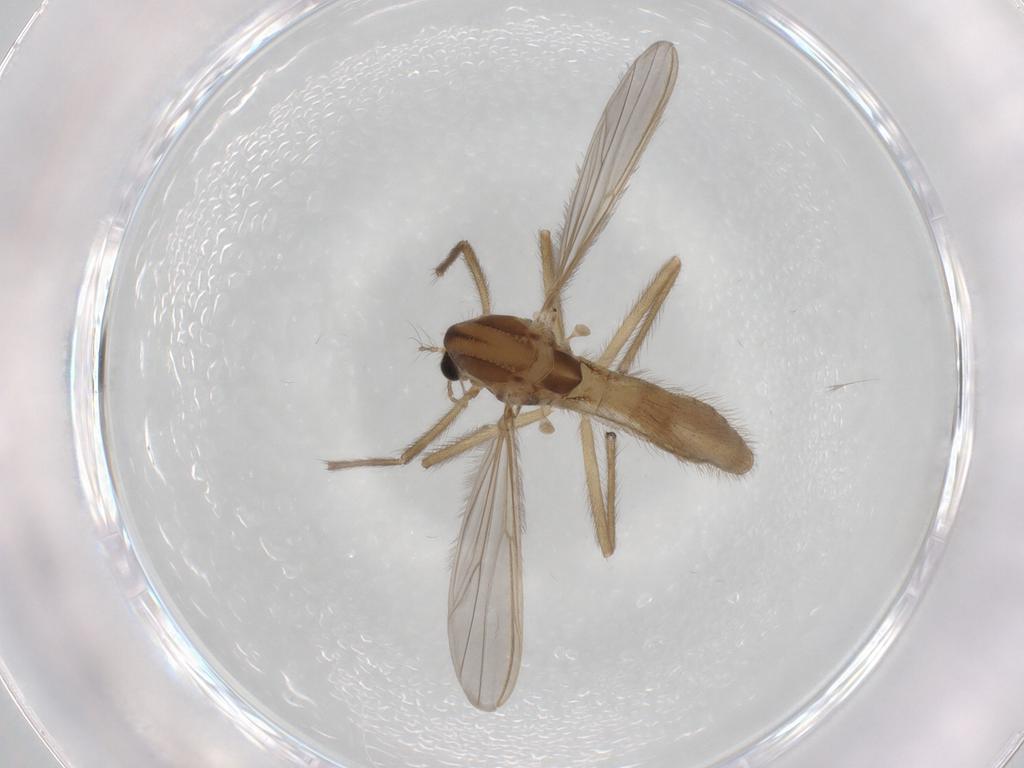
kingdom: Animalia
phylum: Arthropoda
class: Insecta
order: Diptera
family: Chironomidae
